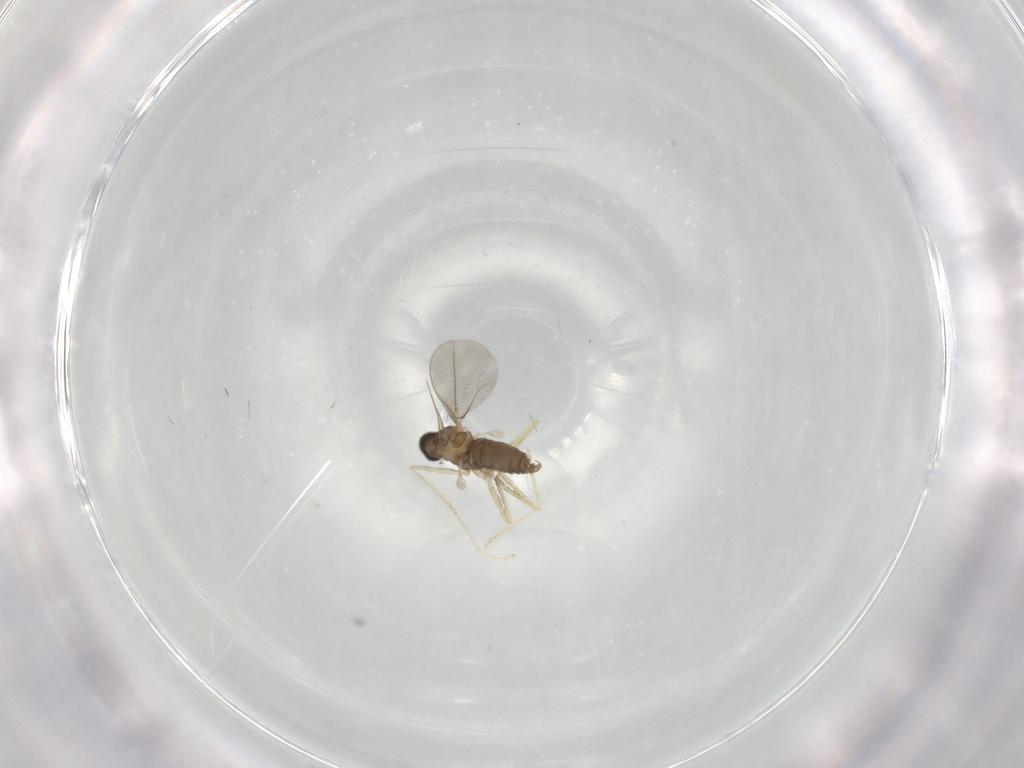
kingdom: Animalia
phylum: Arthropoda
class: Insecta
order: Diptera
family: Cecidomyiidae
